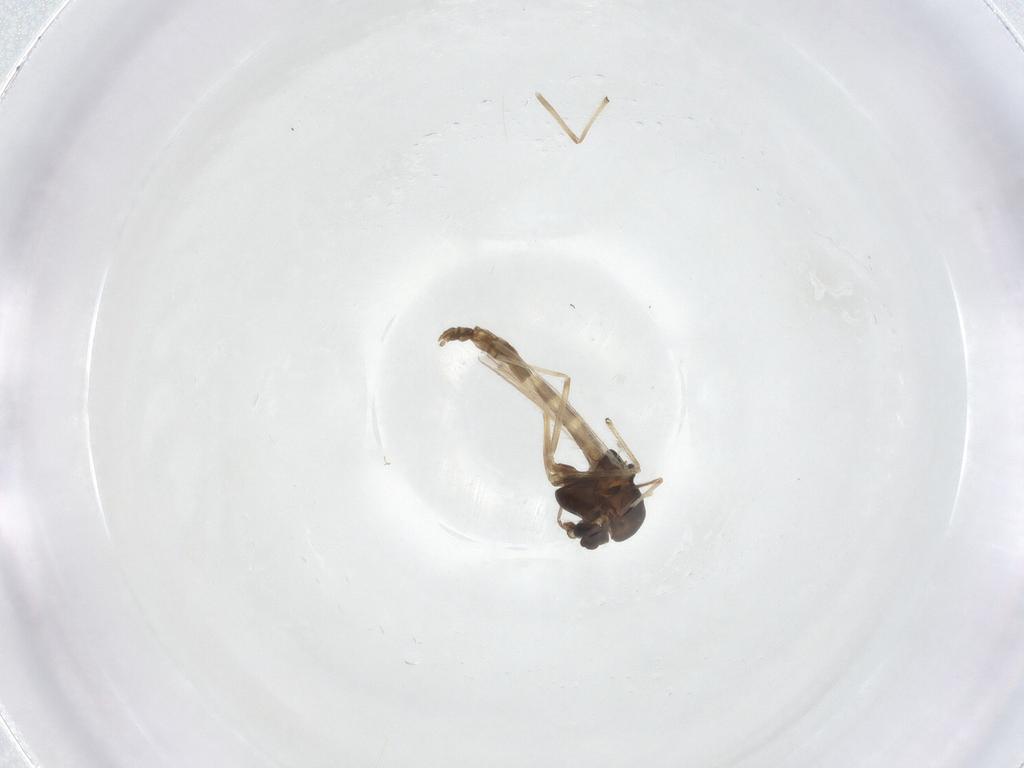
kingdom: Animalia
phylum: Arthropoda
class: Insecta
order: Diptera
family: Chironomidae
